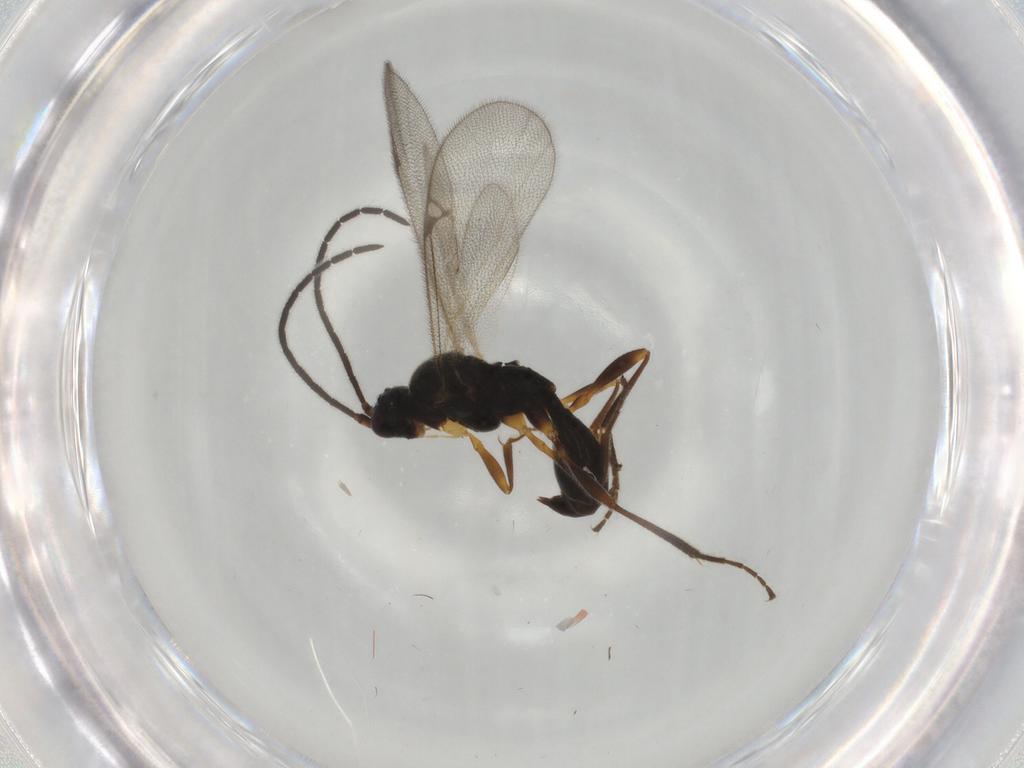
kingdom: Animalia
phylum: Arthropoda
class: Insecta
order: Hymenoptera
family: Proctotrupidae
